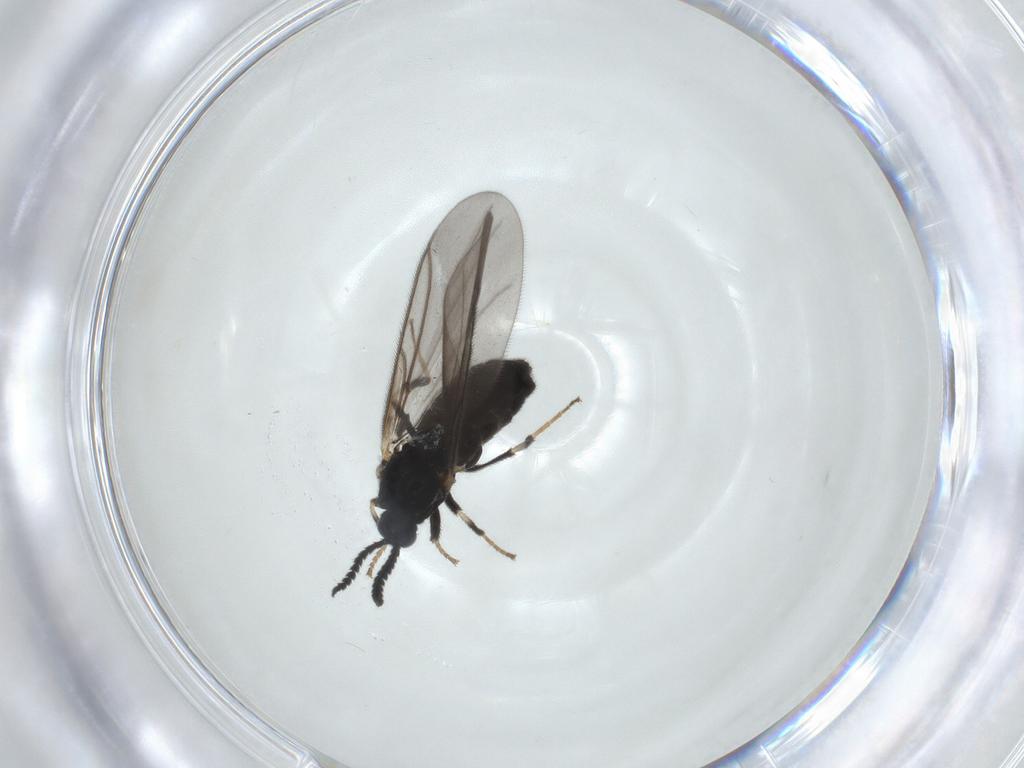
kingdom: Animalia
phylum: Arthropoda
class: Insecta
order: Diptera
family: Scatopsidae
